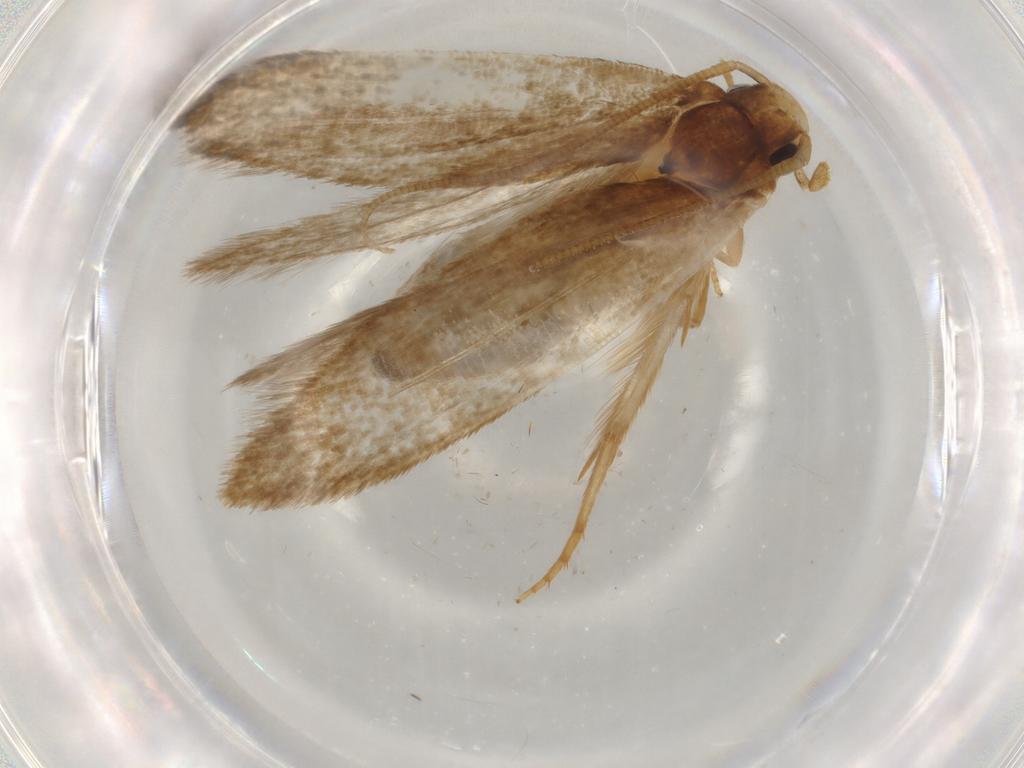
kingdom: Animalia
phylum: Arthropoda
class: Insecta
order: Lepidoptera
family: Tineidae
